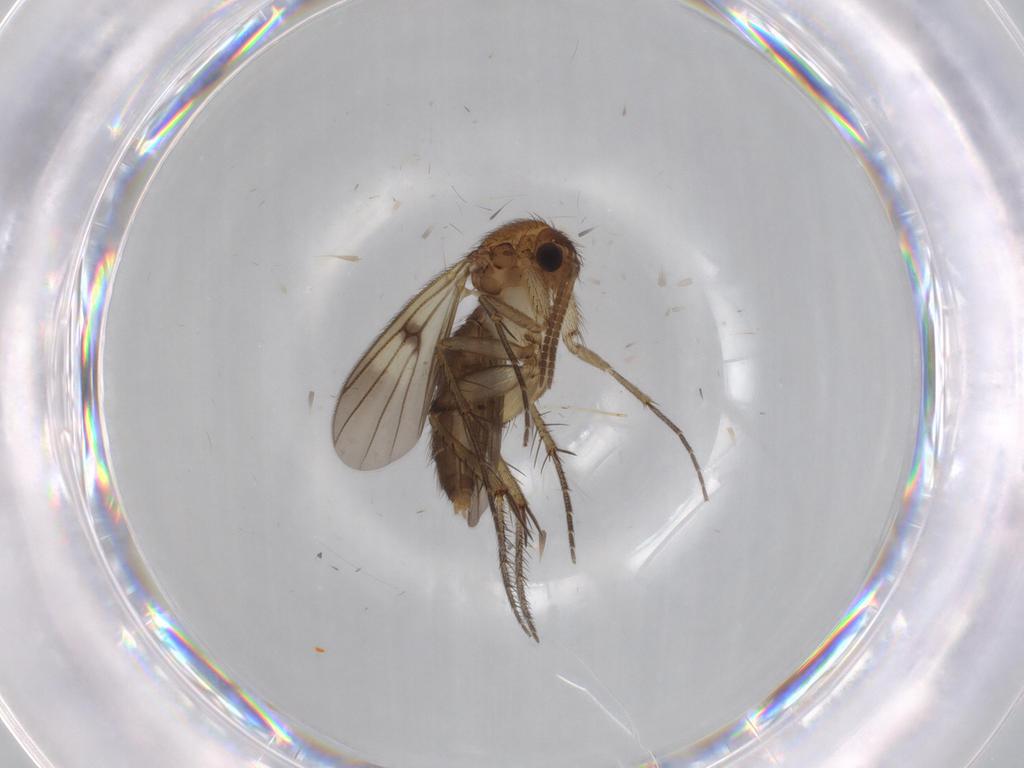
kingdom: Animalia
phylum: Arthropoda
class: Insecta
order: Diptera
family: Cecidomyiidae
